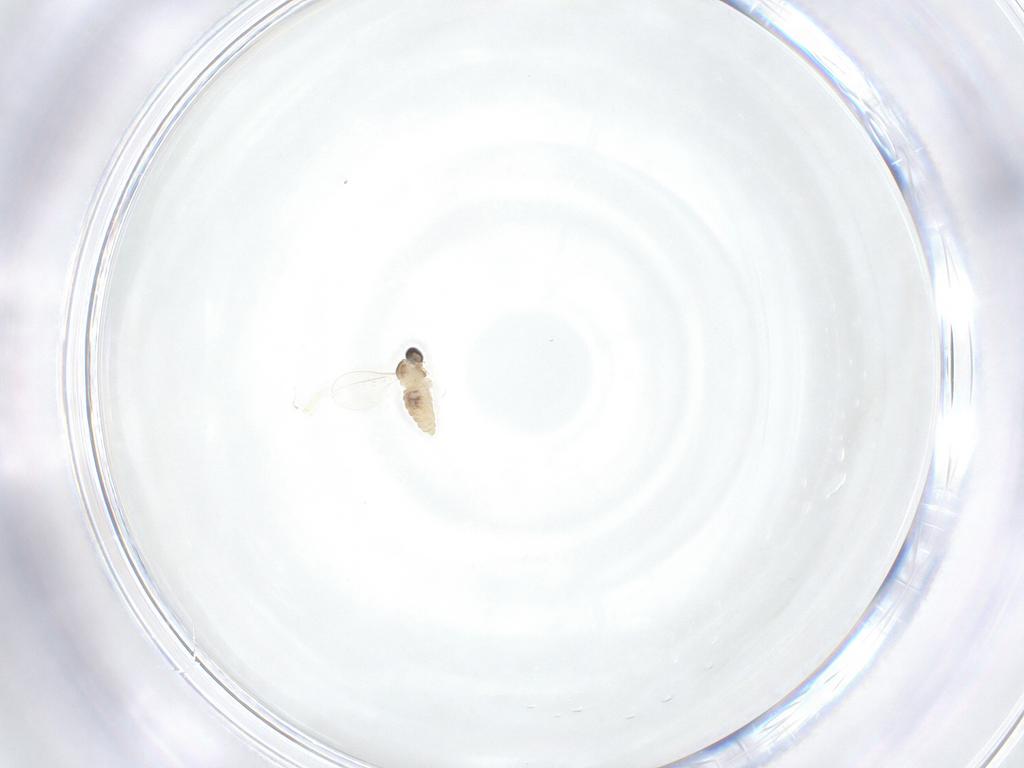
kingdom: Animalia
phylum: Arthropoda
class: Insecta
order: Diptera
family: Cecidomyiidae
